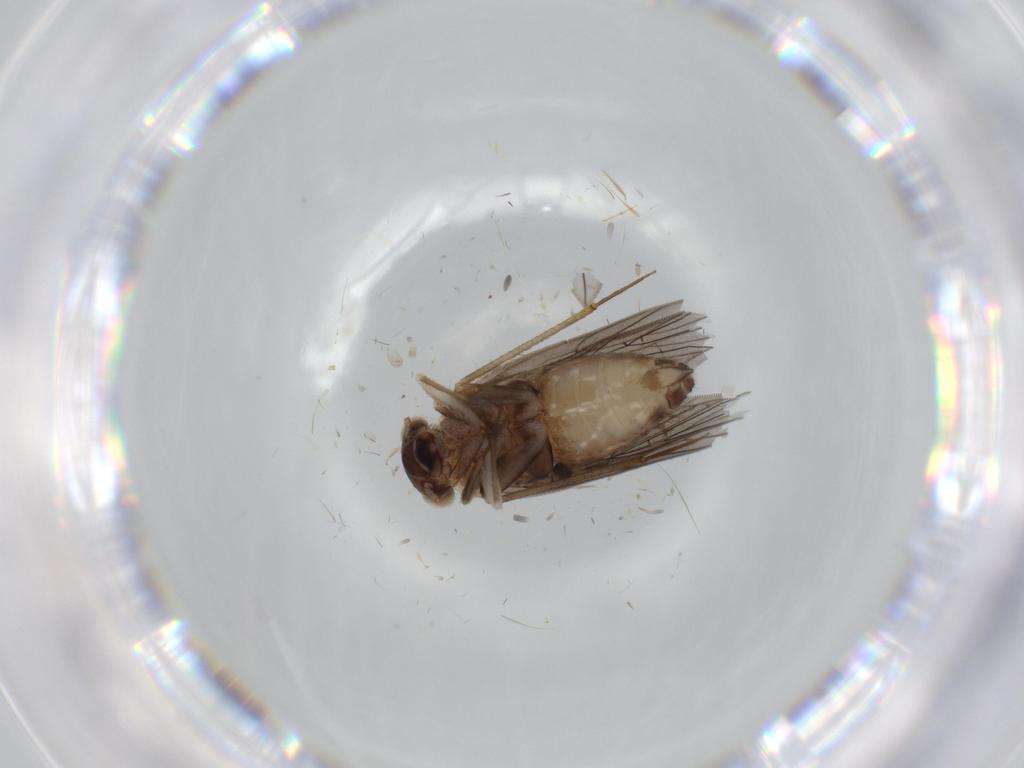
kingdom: Animalia
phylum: Arthropoda
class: Insecta
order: Psocodea
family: Lepidopsocidae
